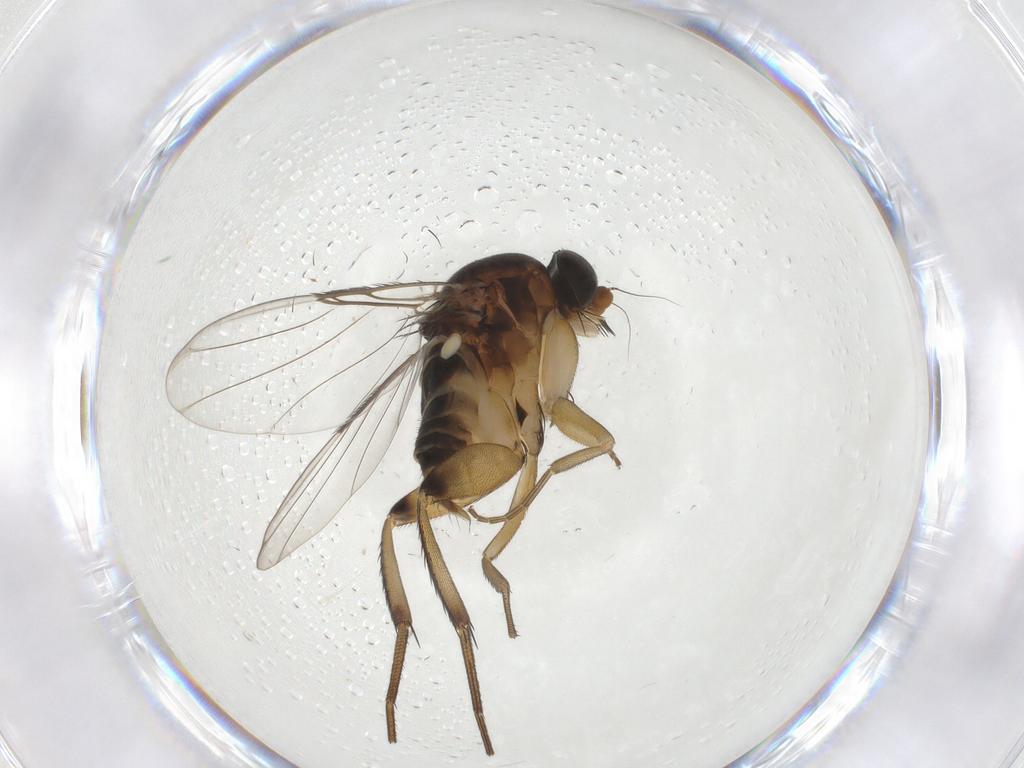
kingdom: Animalia
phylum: Arthropoda
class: Insecta
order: Diptera
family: Phoridae
